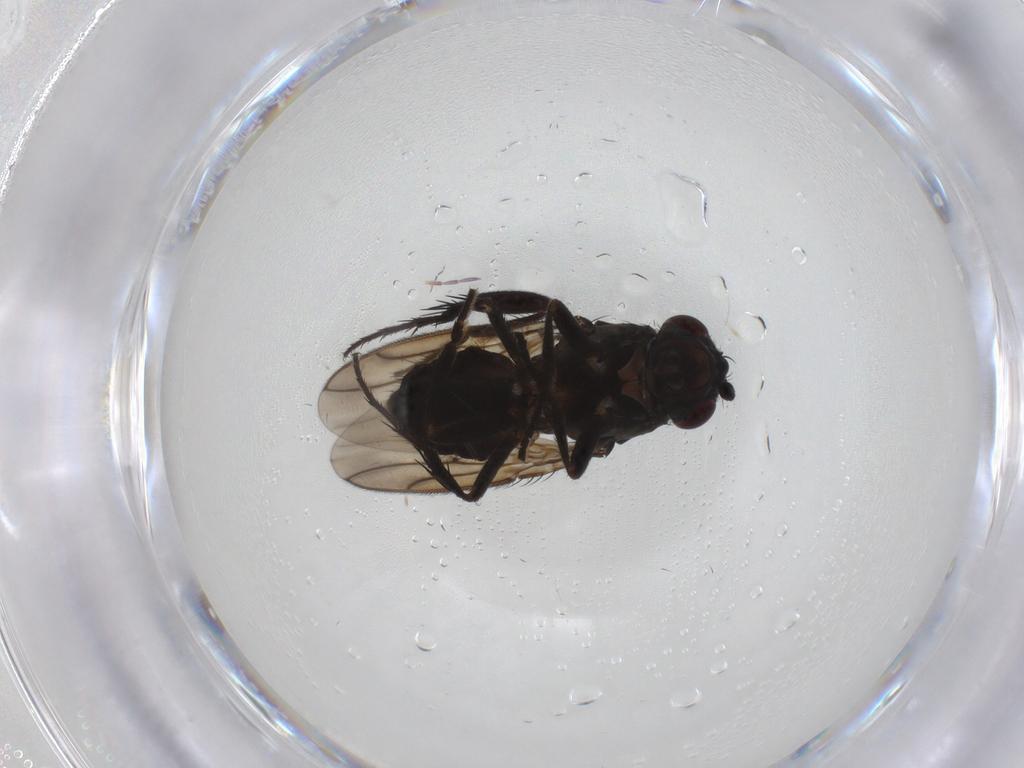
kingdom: Animalia
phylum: Arthropoda
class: Insecta
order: Diptera
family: Sphaeroceridae
